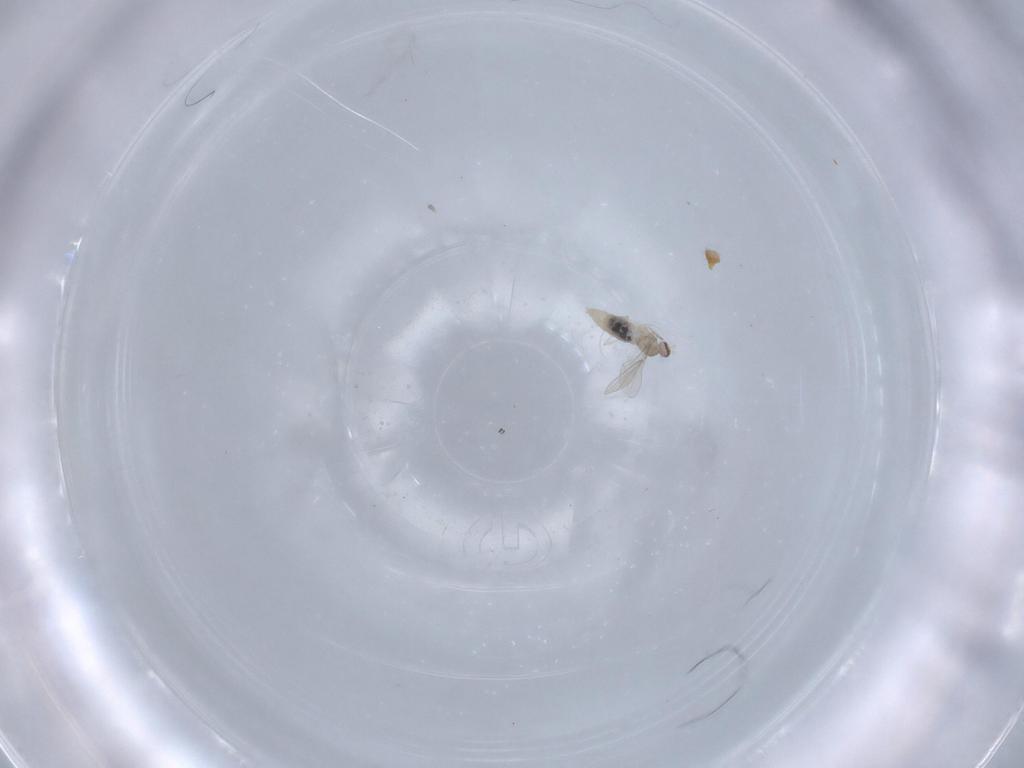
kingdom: Animalia
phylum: Arthropoda
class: Insecta
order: Diptera
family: Cecidomyiidae
